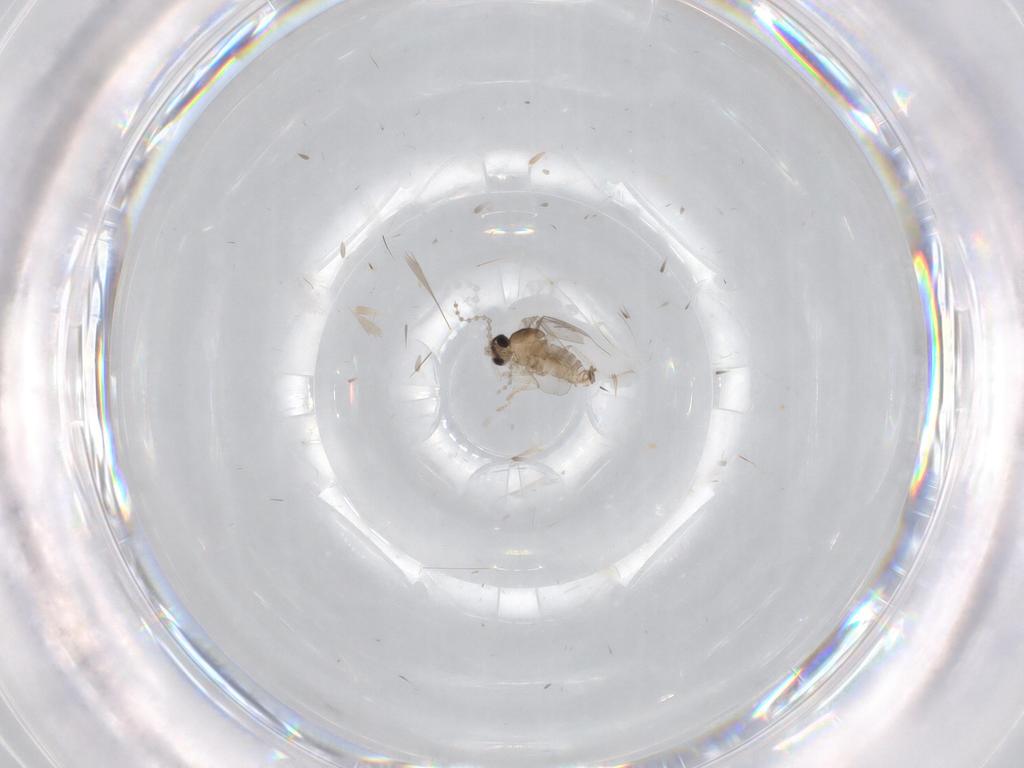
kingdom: Animalia
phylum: Arthropoda
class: Insecta
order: Diptera
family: Cecidomyiidae
